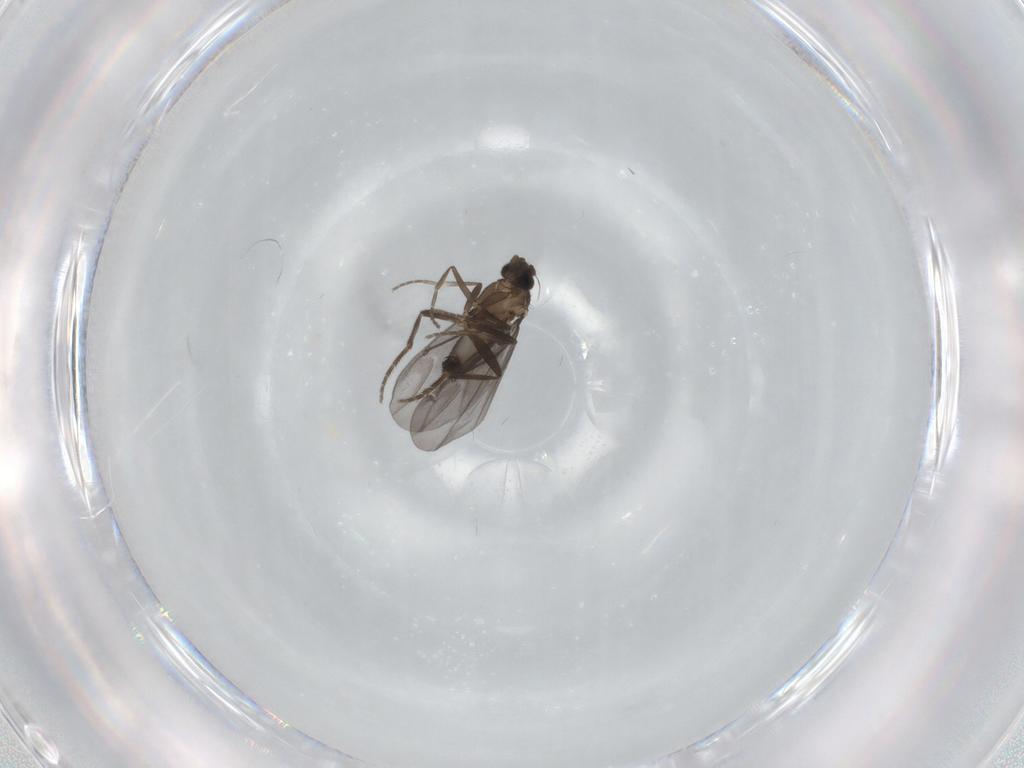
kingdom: Animalia
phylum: Arthropoda
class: Insecta
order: Diptera
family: Phoridae
